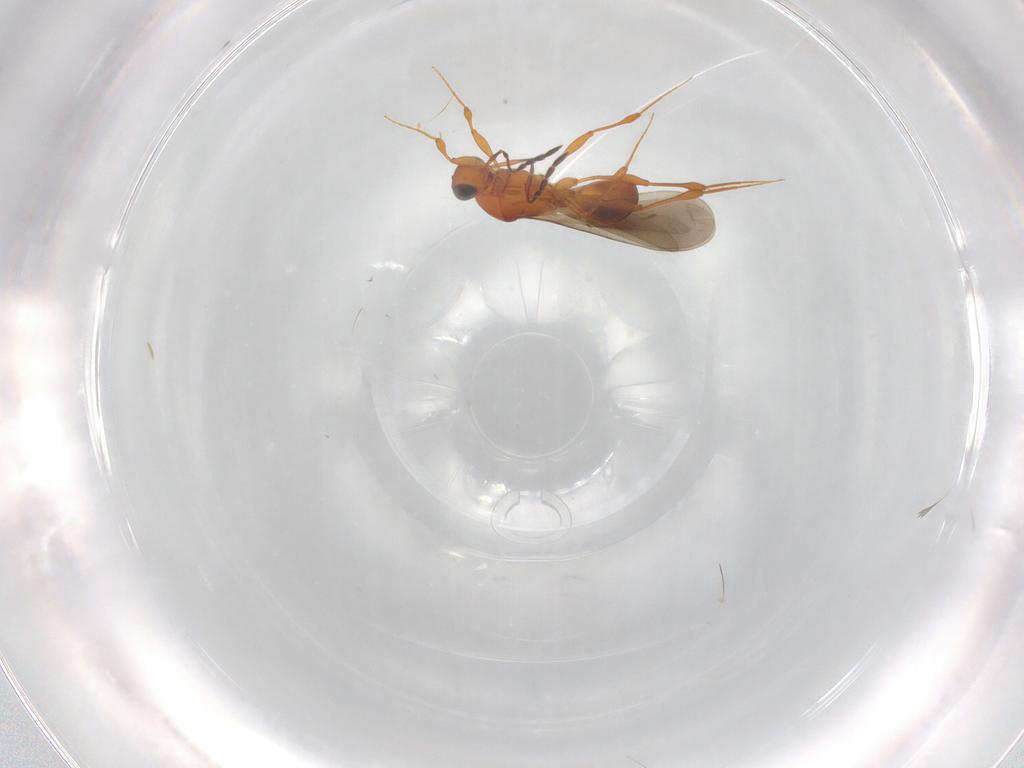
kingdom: Animalia
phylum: Arthropoda
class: Insecta
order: Hymenoptera
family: Platygastridae
